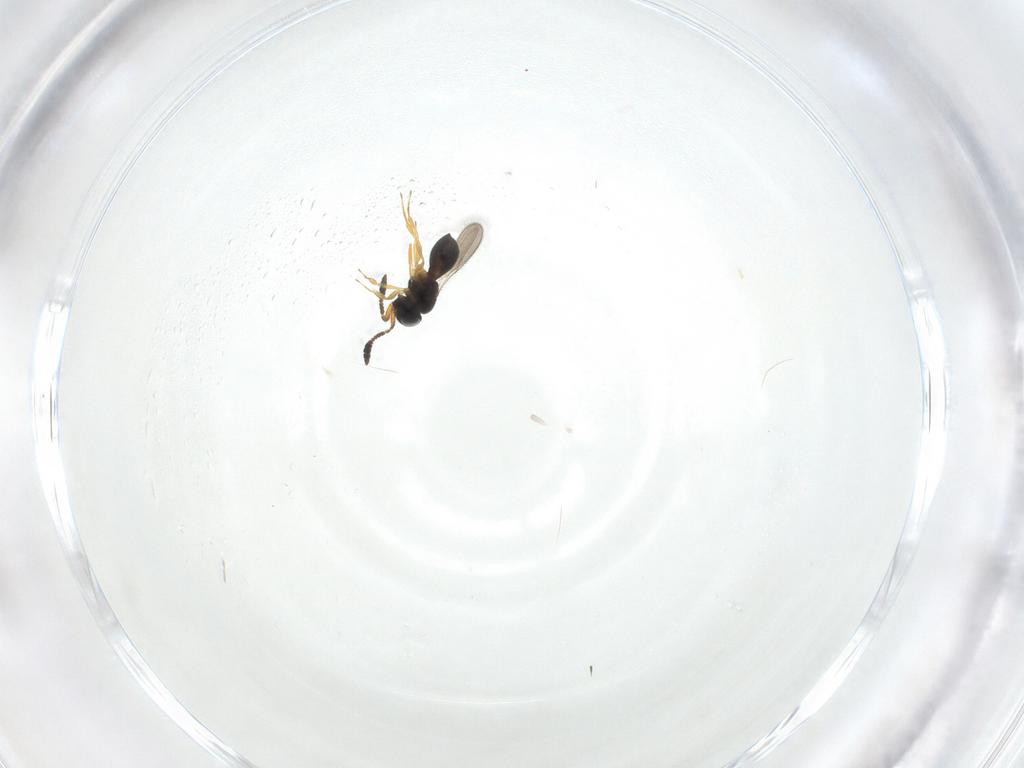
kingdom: Animalia
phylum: Arthropoda
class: Insecta
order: Hymenoptera
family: Scelionidae
